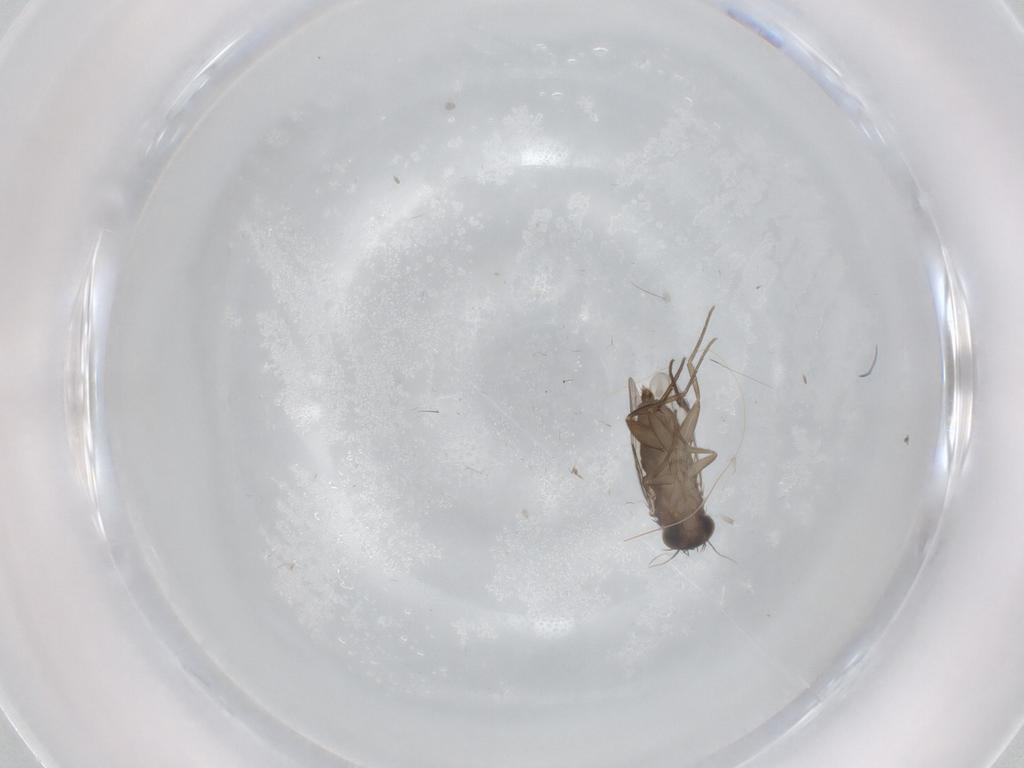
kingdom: Animalia
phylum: Arthropoda
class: Insecta
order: Diptera
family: Phoridae
